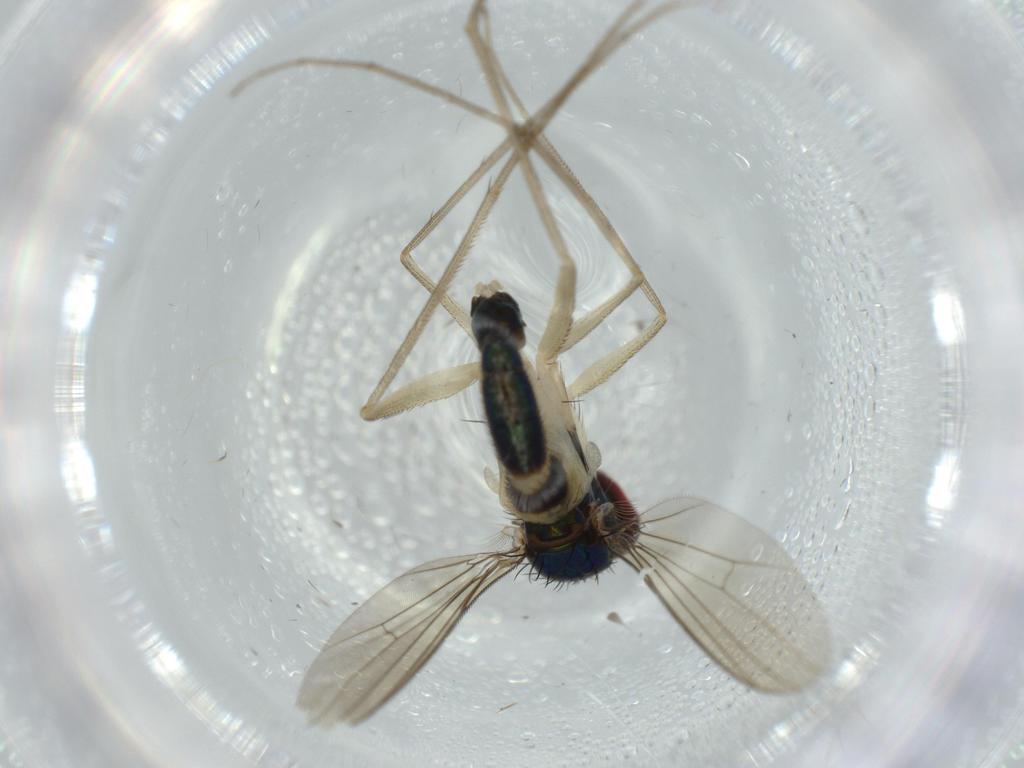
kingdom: Animalia
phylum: Arthropoda
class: Insecta
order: Diptera
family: Dolichopodidae
